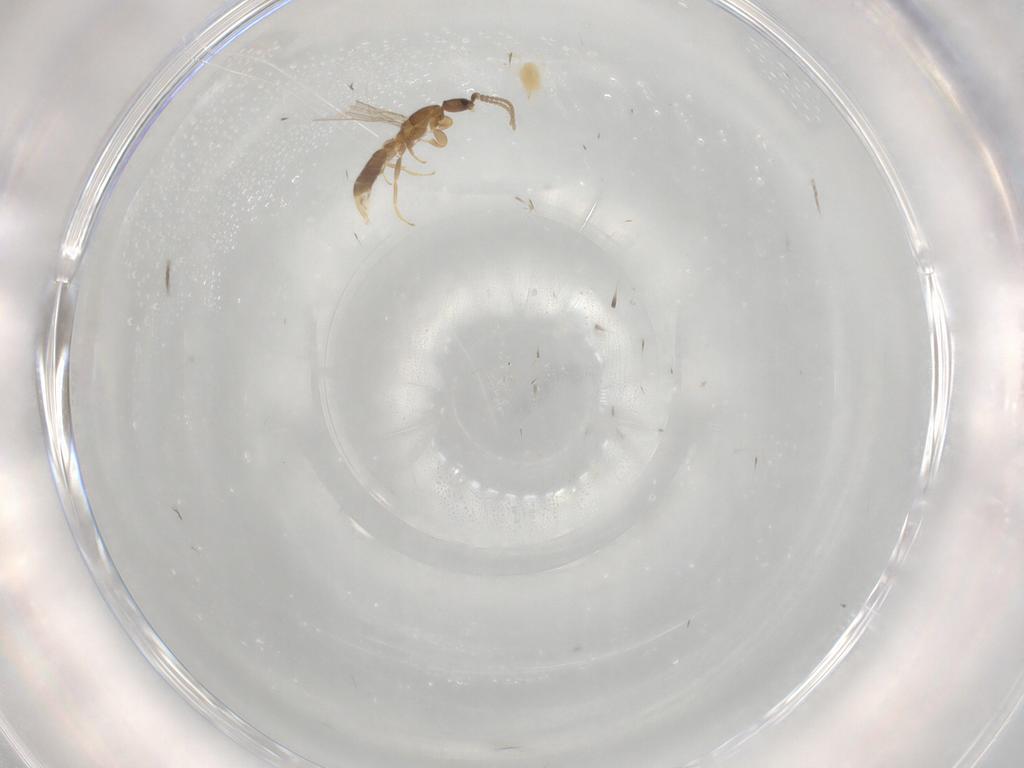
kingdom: Animalia
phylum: Arthropoda
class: Insecta
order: Hymenoptera
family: Formicidae
